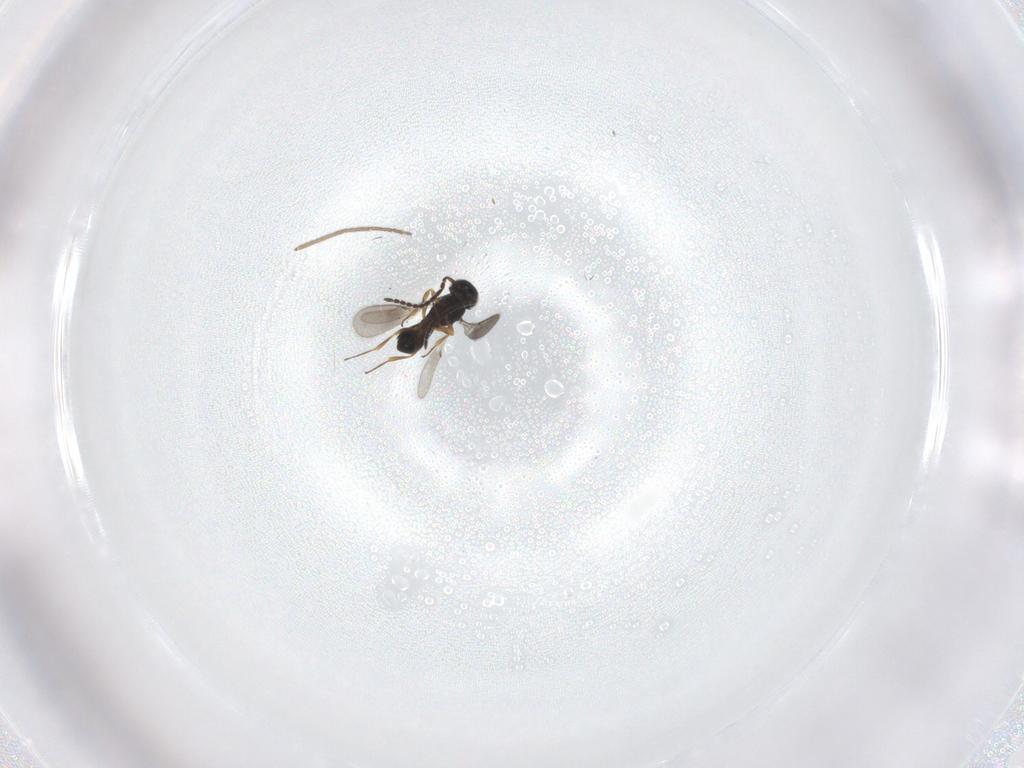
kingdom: Animalia
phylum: Arthropoda
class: Insecta
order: Hymenoptera
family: Scelionidae
